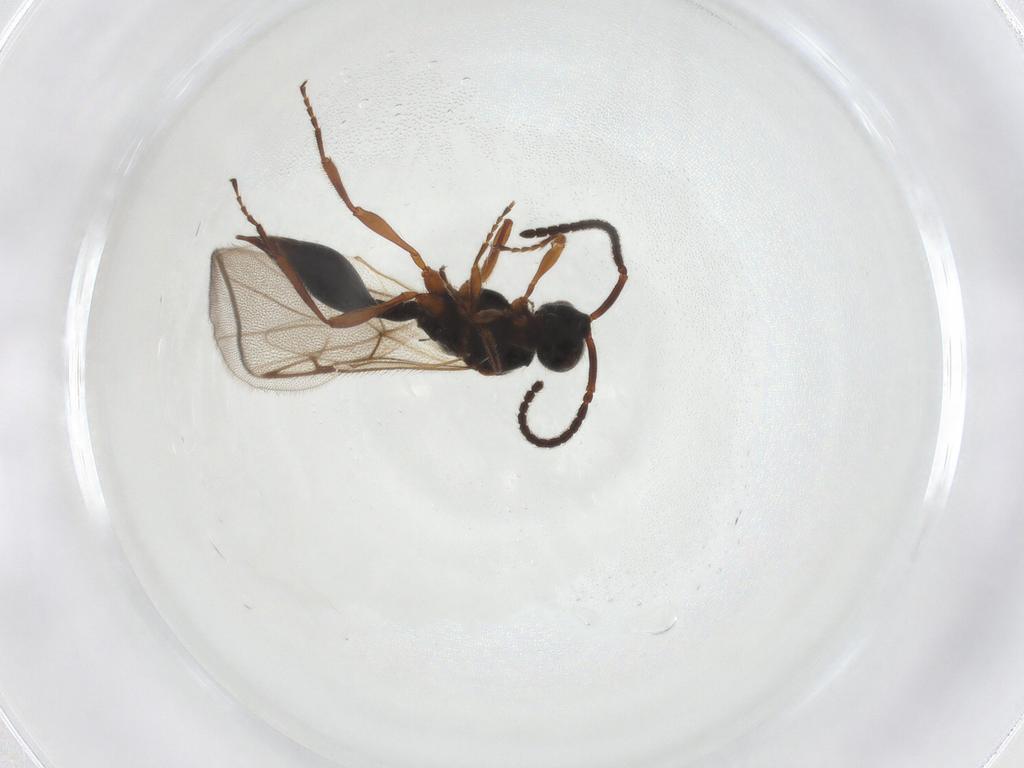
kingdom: Animalia
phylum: Arthropoda
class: Insecta
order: Hymenoptera
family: Diapriidae
